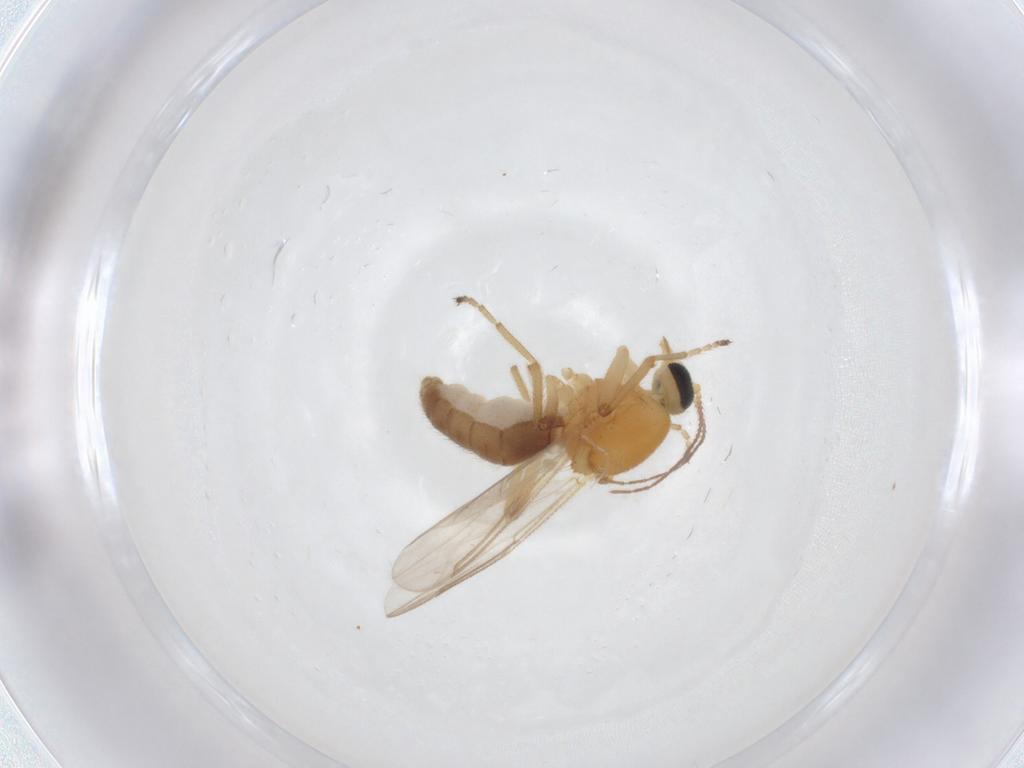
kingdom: Animalia
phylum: Arthropoda
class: Insecta
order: Diptera
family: Ceratopogonidae
